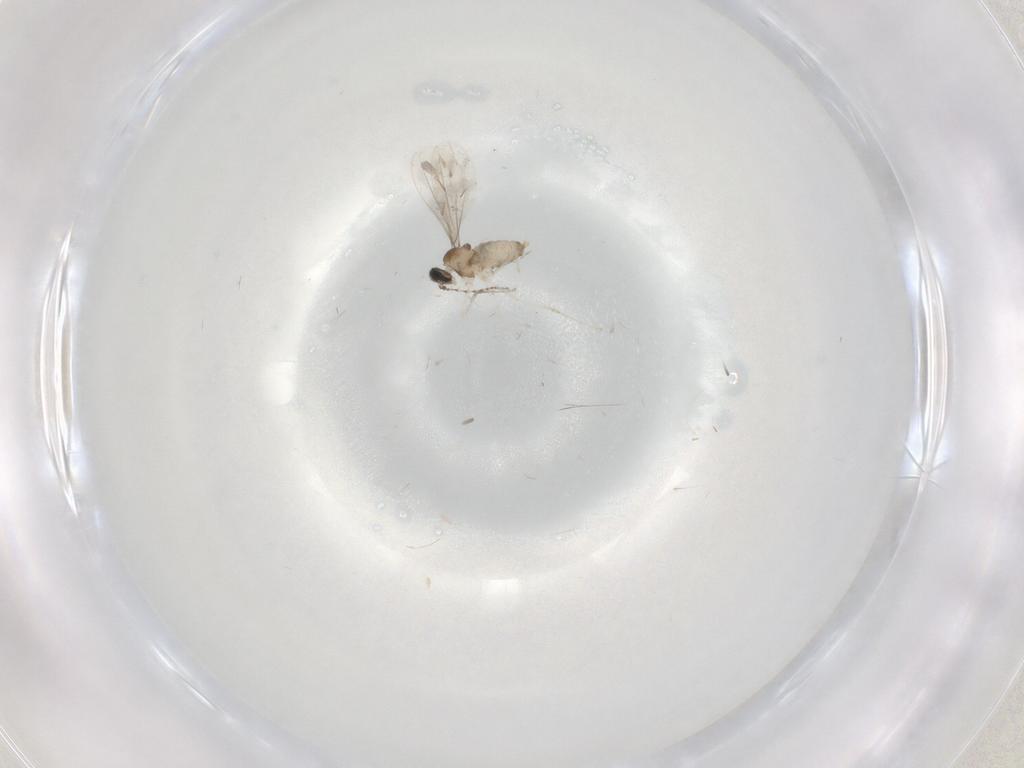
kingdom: Animalia
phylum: Arthropoda
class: Insecta
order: Diptera
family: Cecidomyiidae
